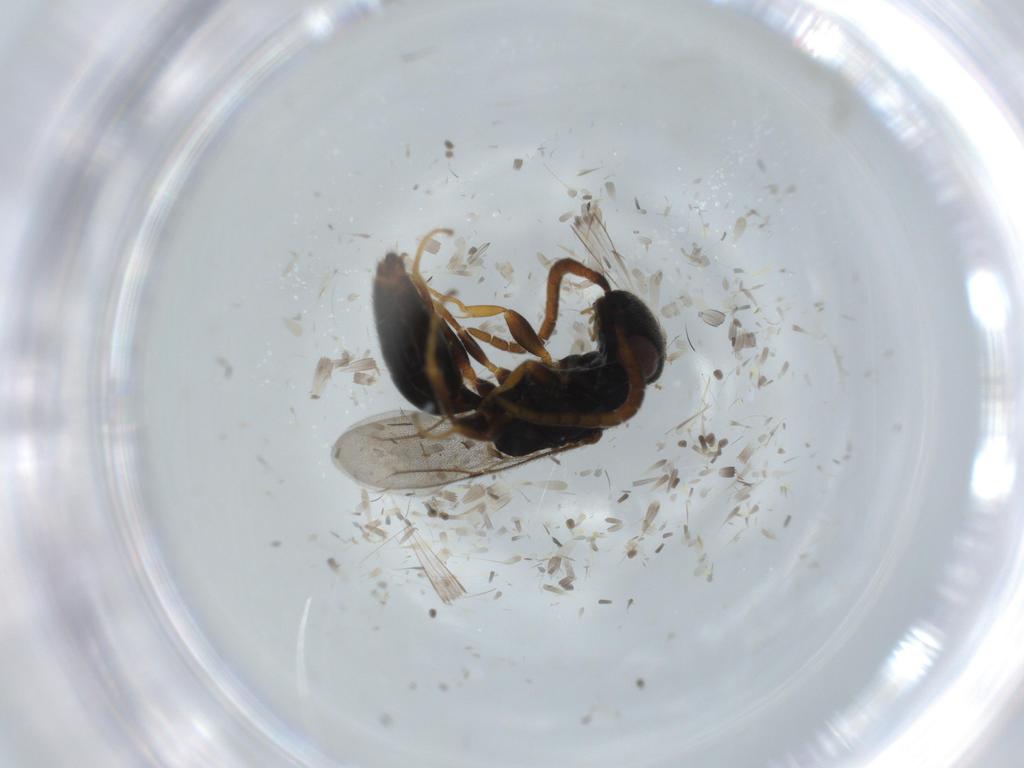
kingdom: Animalia
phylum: Arthropoda
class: Insecta
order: Hymenoptera
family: Bethylidae
